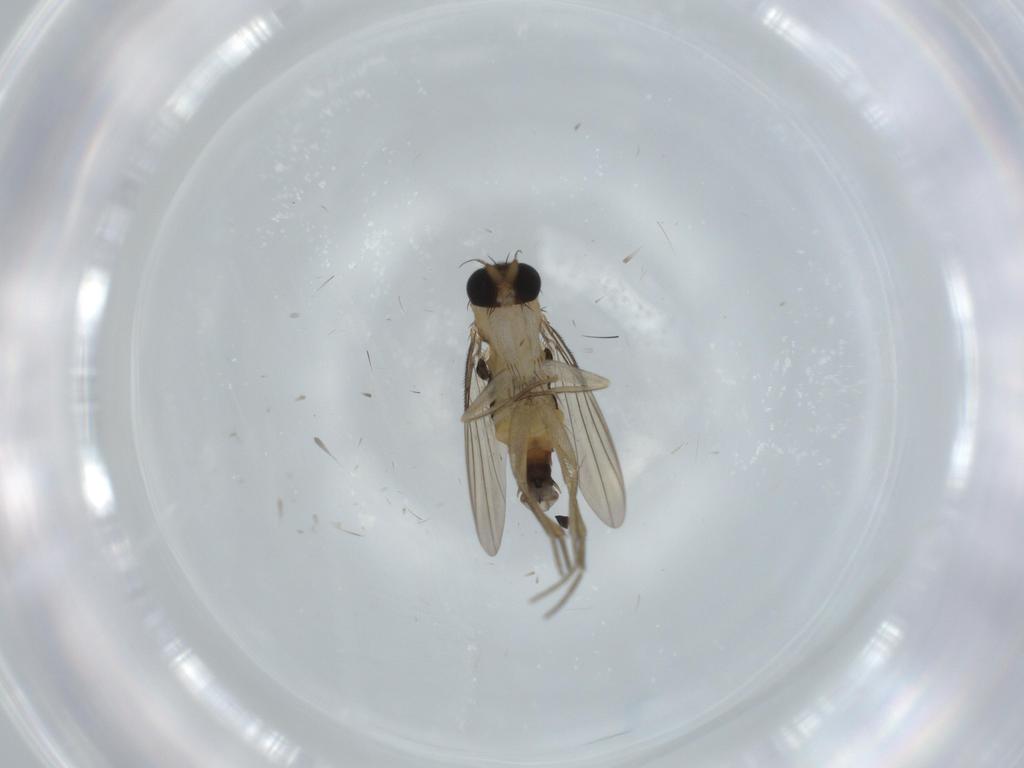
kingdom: Animalia
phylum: Arthropoda
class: Insecta
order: Diptera
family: Phoridae
